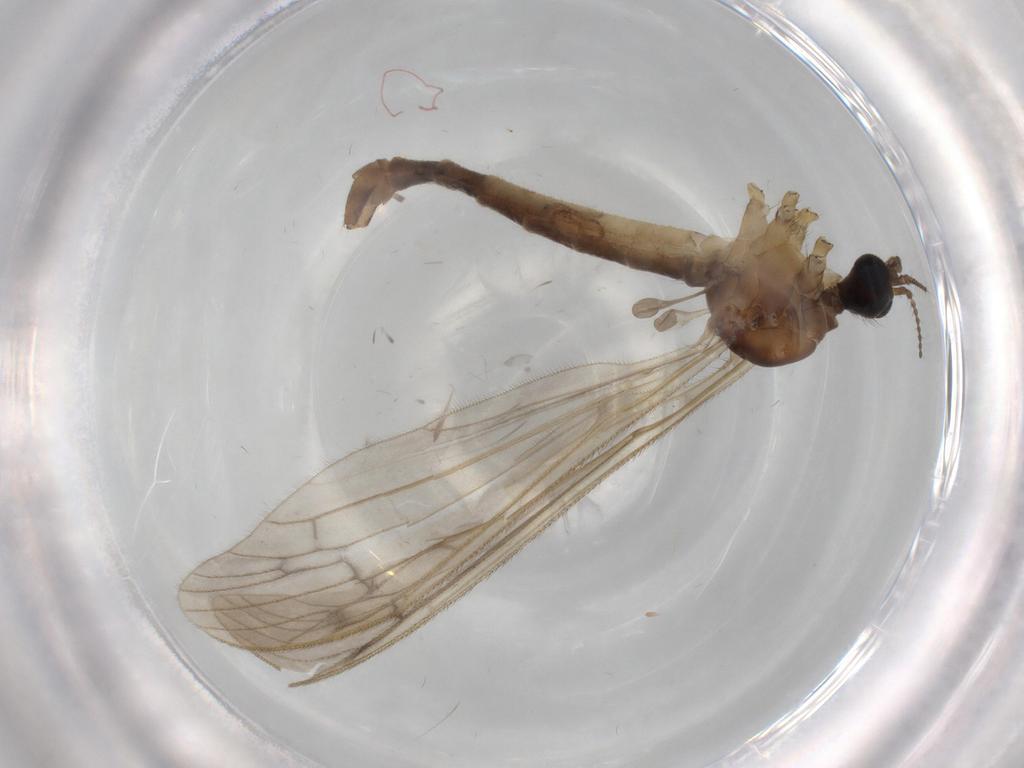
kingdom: Animalia
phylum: Arthropoda
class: Insecta
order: Diptera
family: Limoniidae
